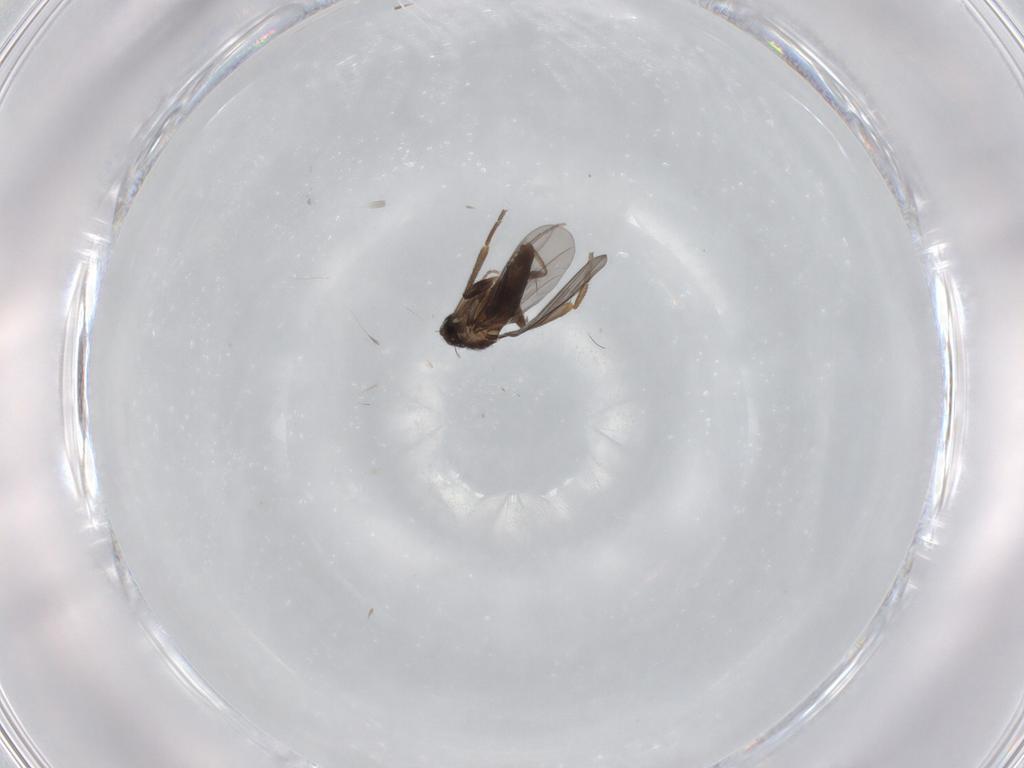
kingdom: Animalia
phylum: Arthropoda
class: Insecta
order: Diptera
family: Phoridae
